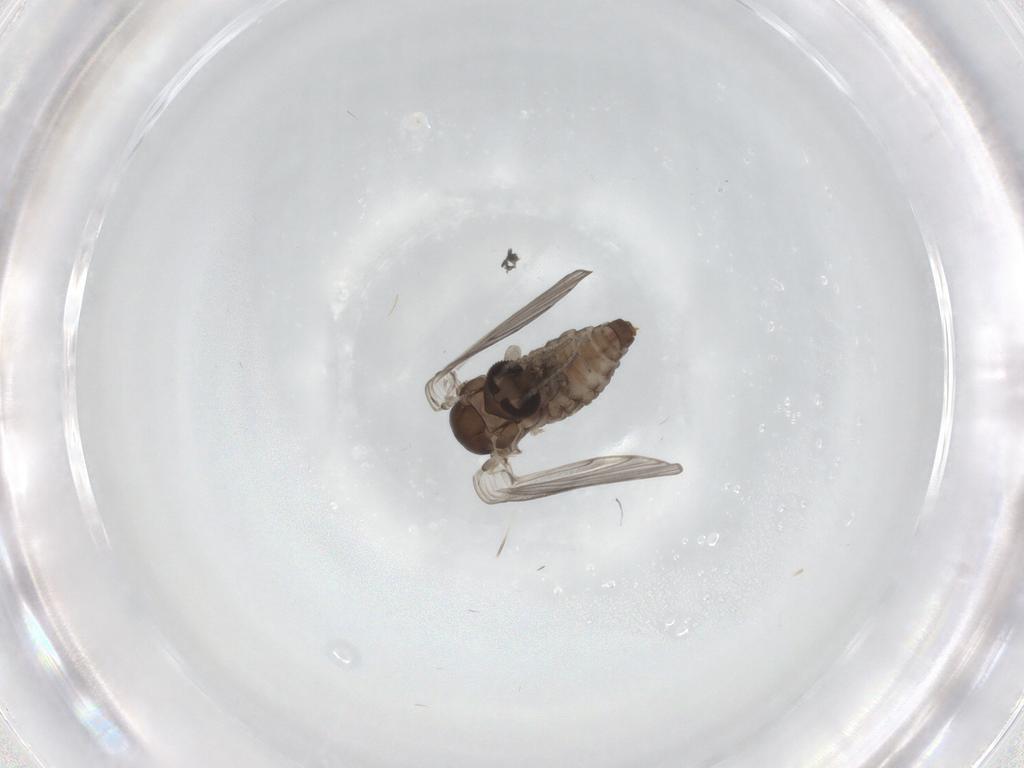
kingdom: Animalia
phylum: Arthropoda
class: Insecta
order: Diptera
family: Psychodidae
